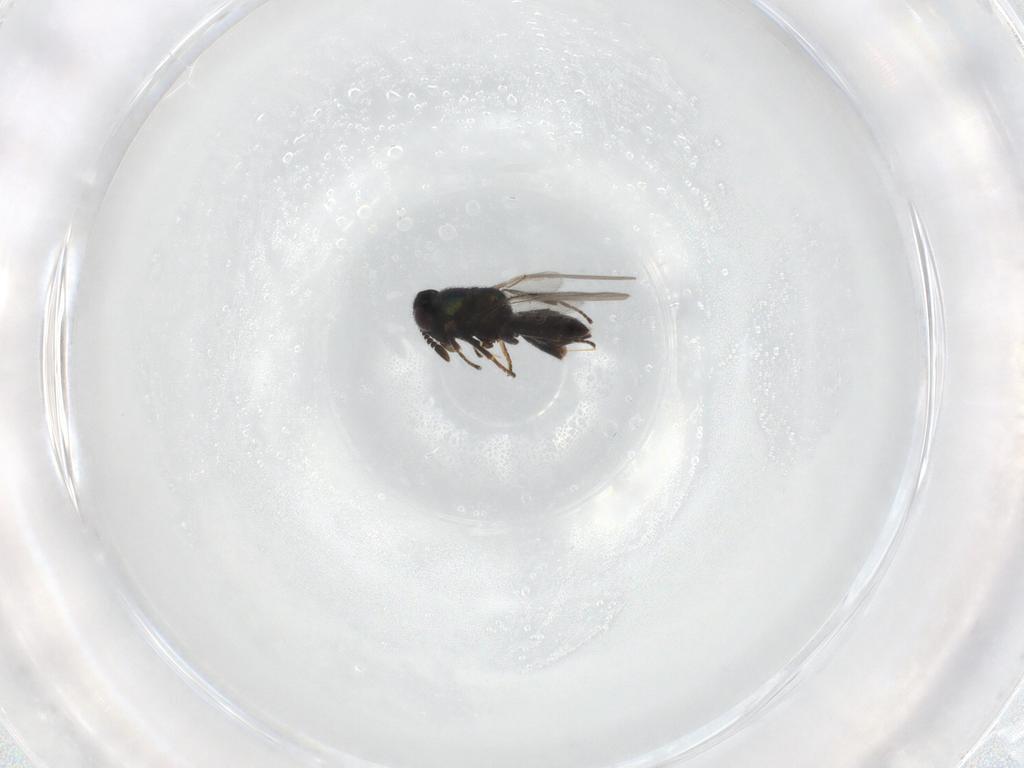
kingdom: Animalia
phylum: Arthropoda
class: Insecta
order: Hymenoptera
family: Encyrtidae
